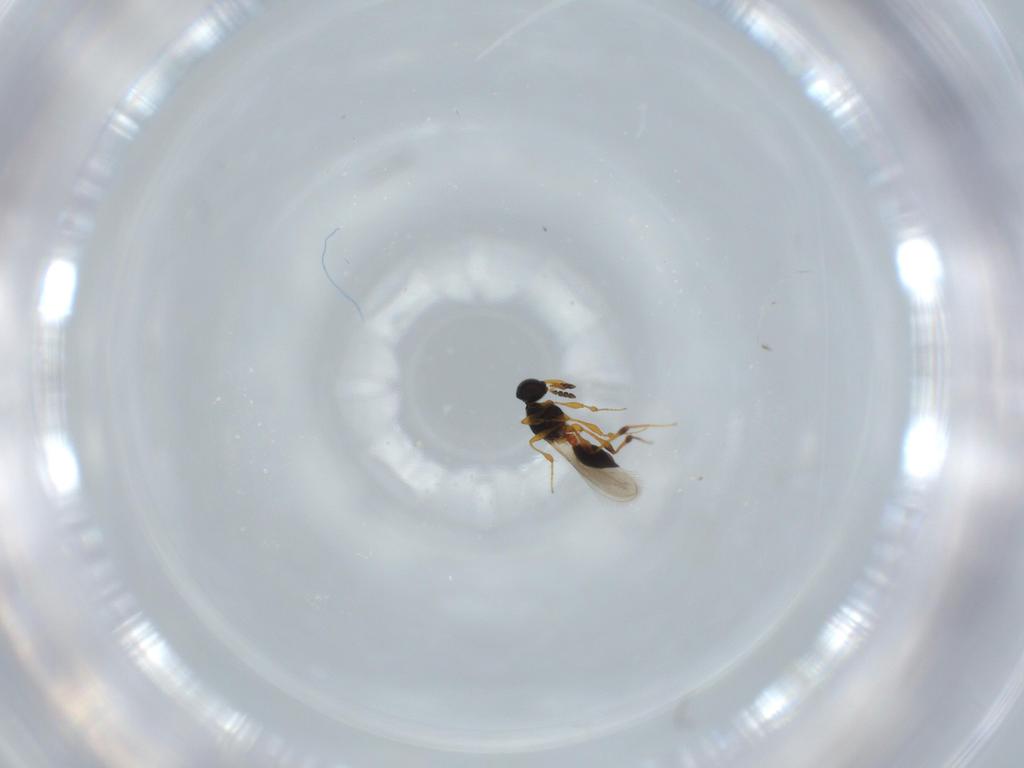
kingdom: Animalia
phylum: Arthropoda
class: Insecta
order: Hymenoptera
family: Platygastridae
